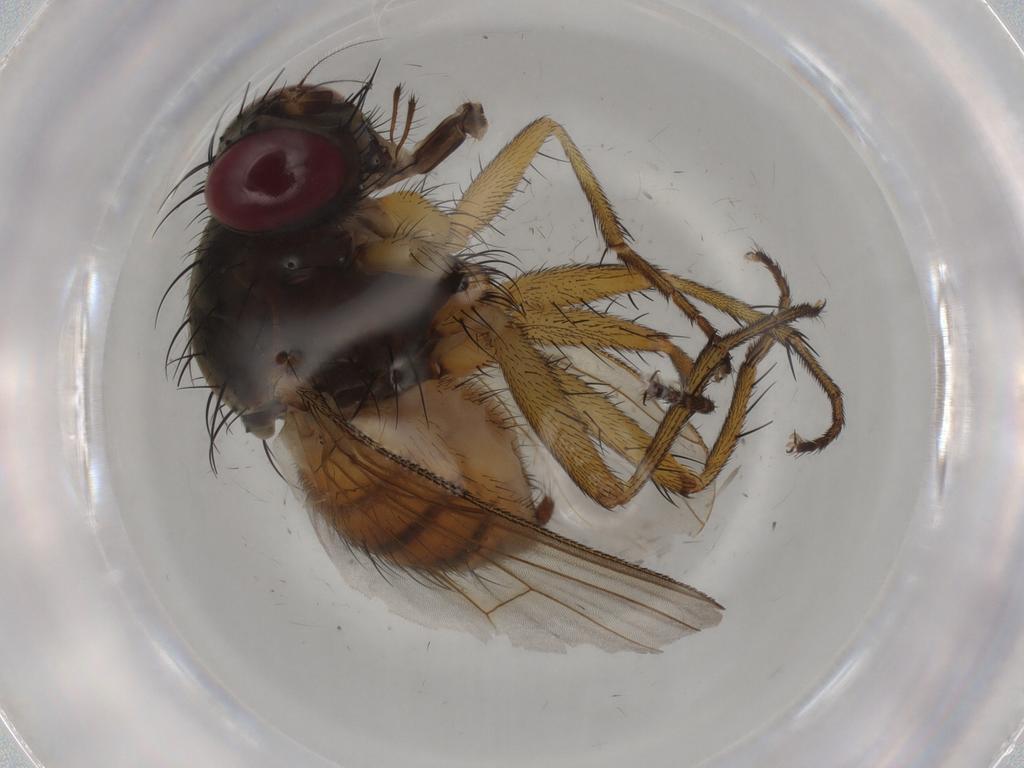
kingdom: Animalia
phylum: Arthropoda
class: Insecta
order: Diptera
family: Muscidae
